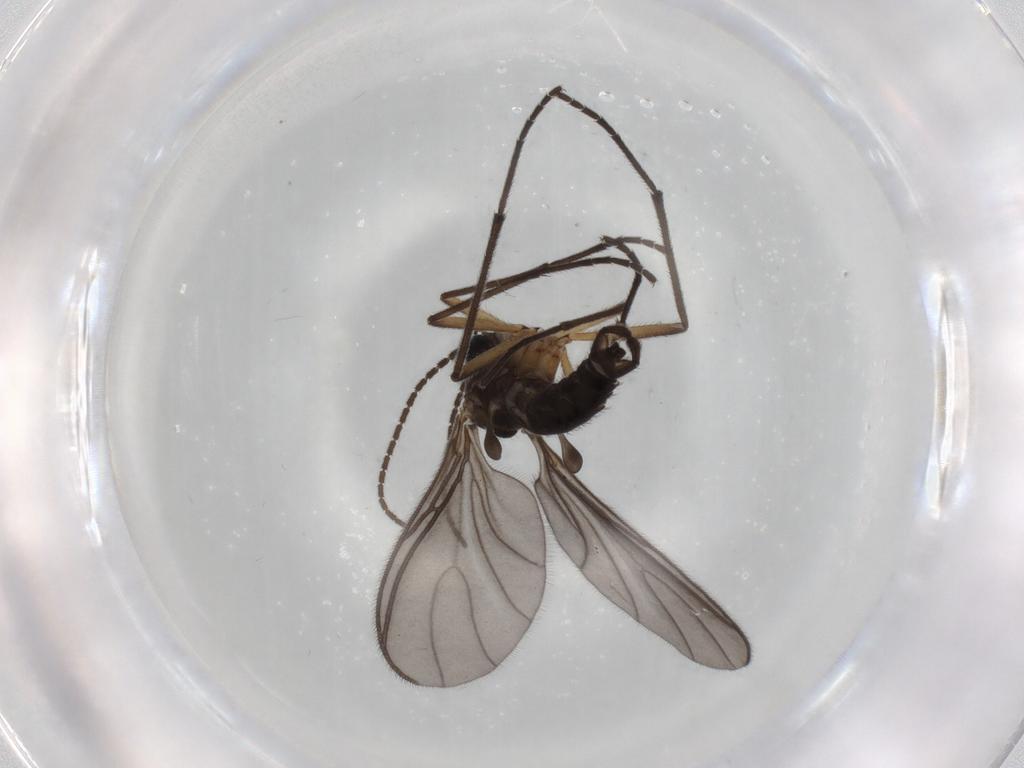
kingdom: Animalia
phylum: Arthropoda
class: Insecta
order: Diptera
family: Sciaridae
